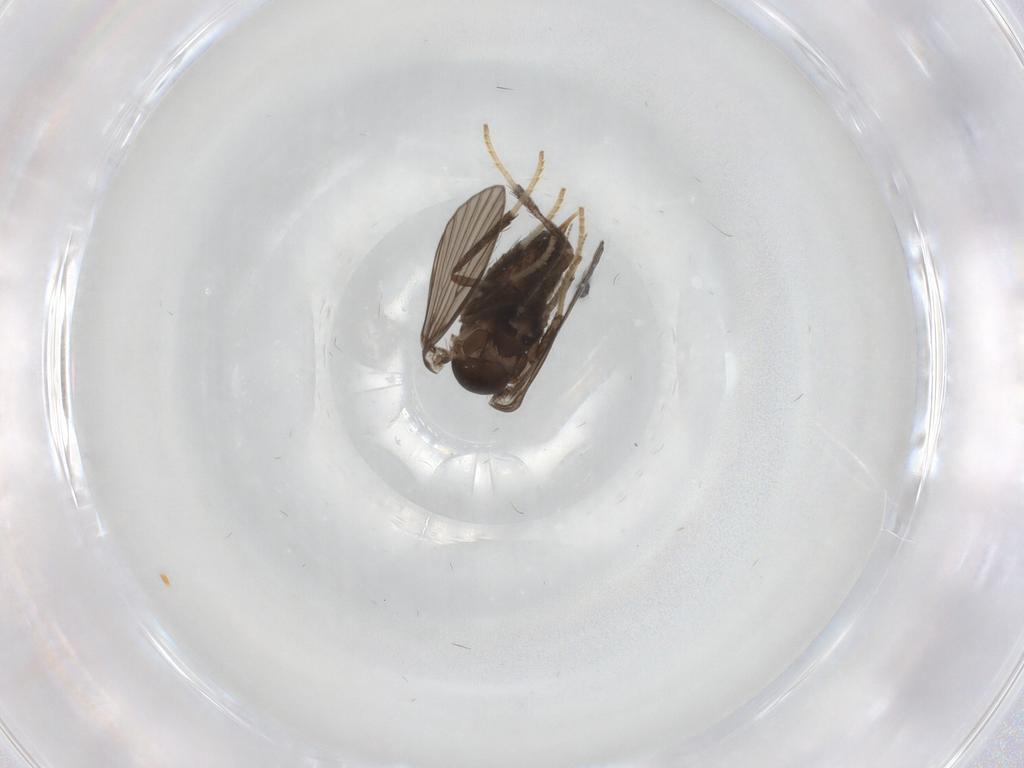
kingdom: Animalia
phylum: Arthropoda
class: Insecta
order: Diptera
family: Psychodidae
